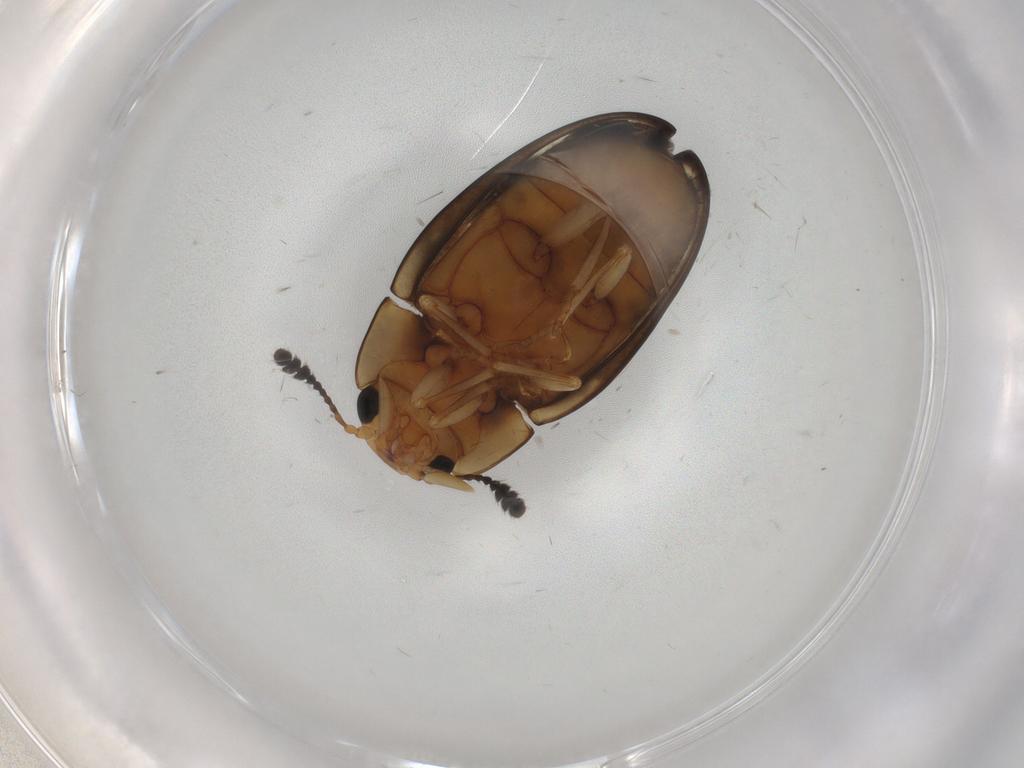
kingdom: Animalia
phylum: Arthropoda
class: Insecta
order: Coleoptera
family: Erotylidae
